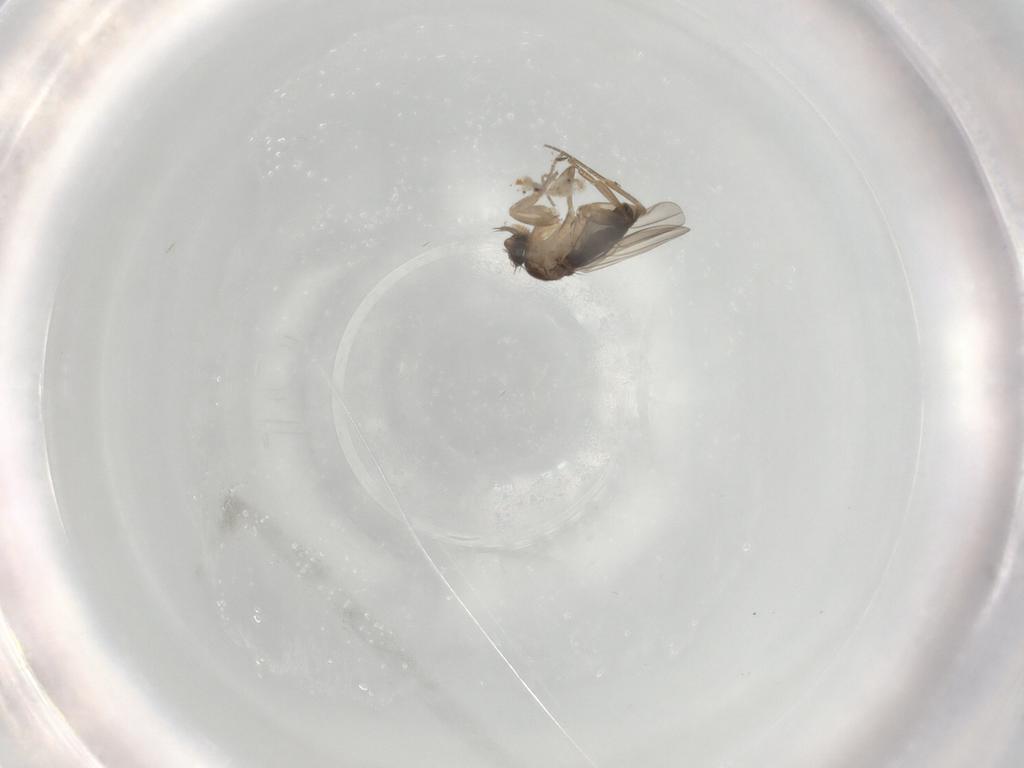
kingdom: Animalia
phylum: Arthropoda
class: Insecta
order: Diptera
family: Phoridae
